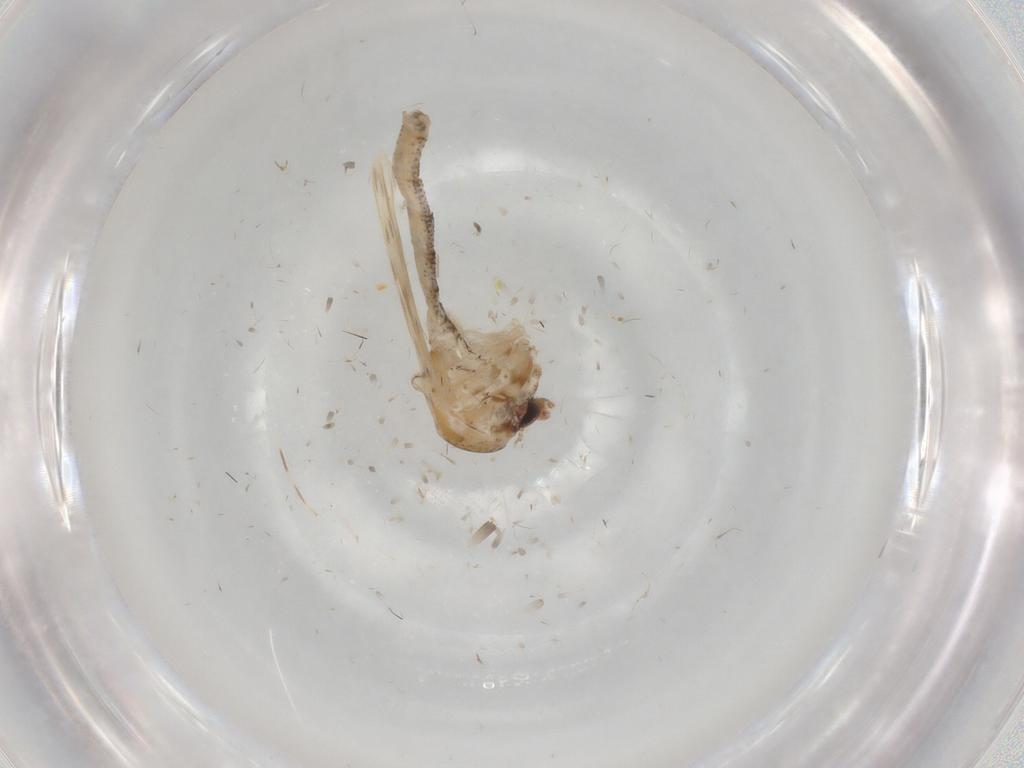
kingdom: Animalia
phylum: Arthropoda
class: Insecta
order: Diptera
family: Chaoboridae
